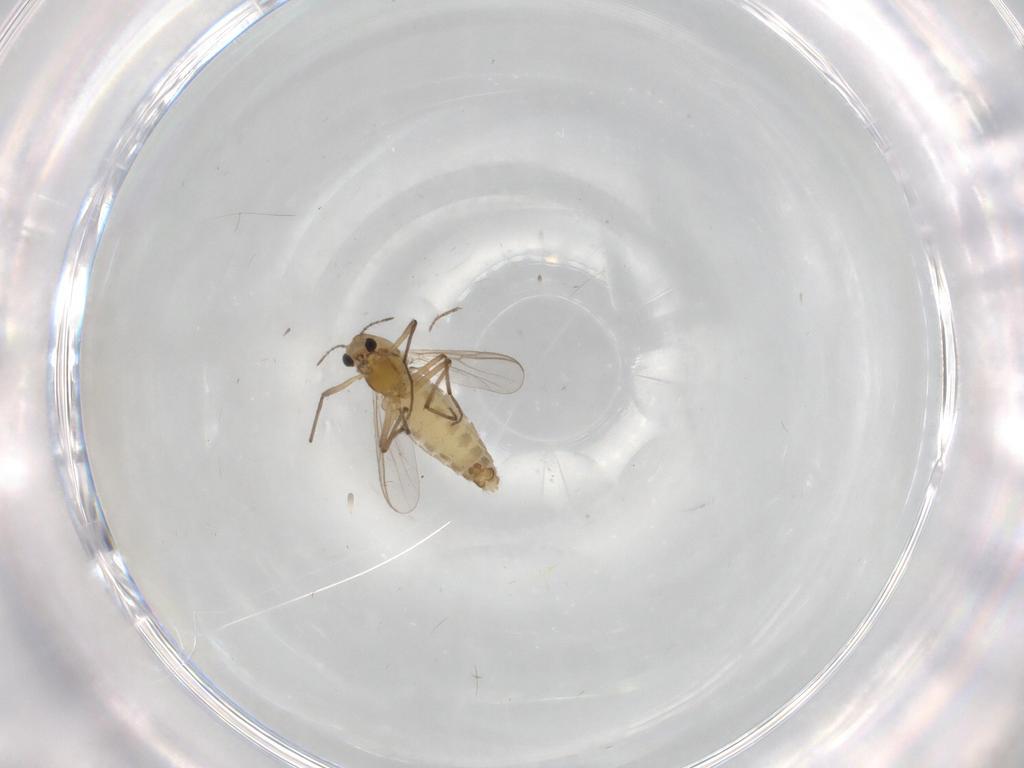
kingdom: Animalia
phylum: Arthropoda
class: Insecta
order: Diptera
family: Chironomidae
